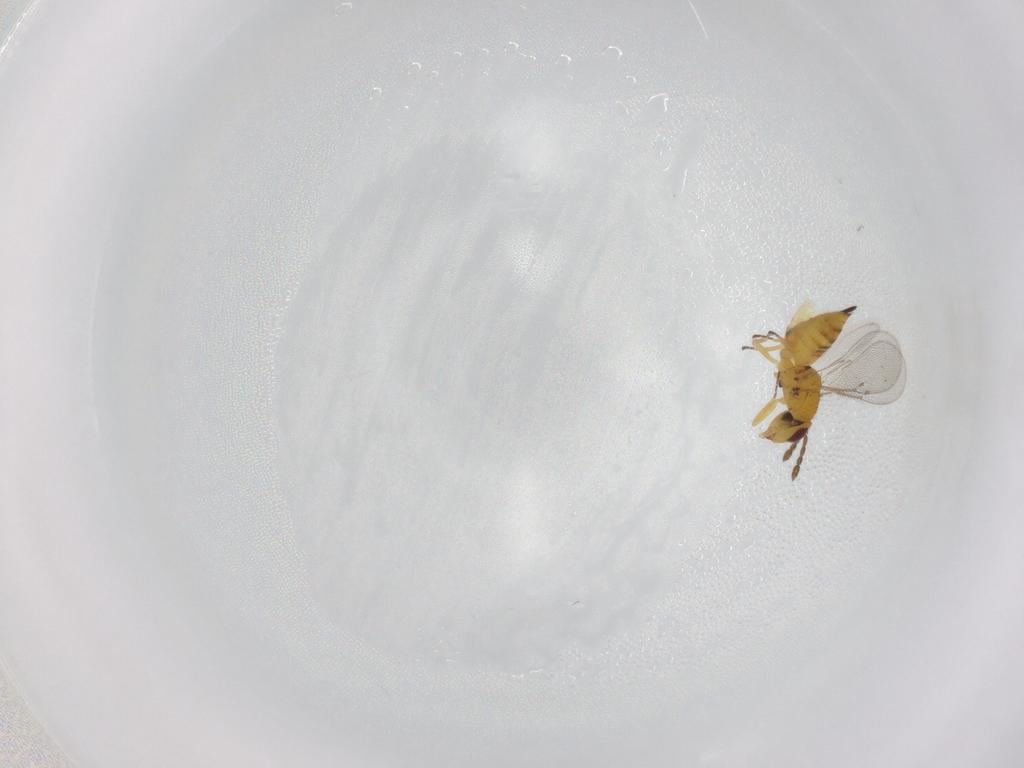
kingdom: Animalia
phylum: Arthropoda
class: Insecta
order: Hymenoptera
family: Eulophidae
